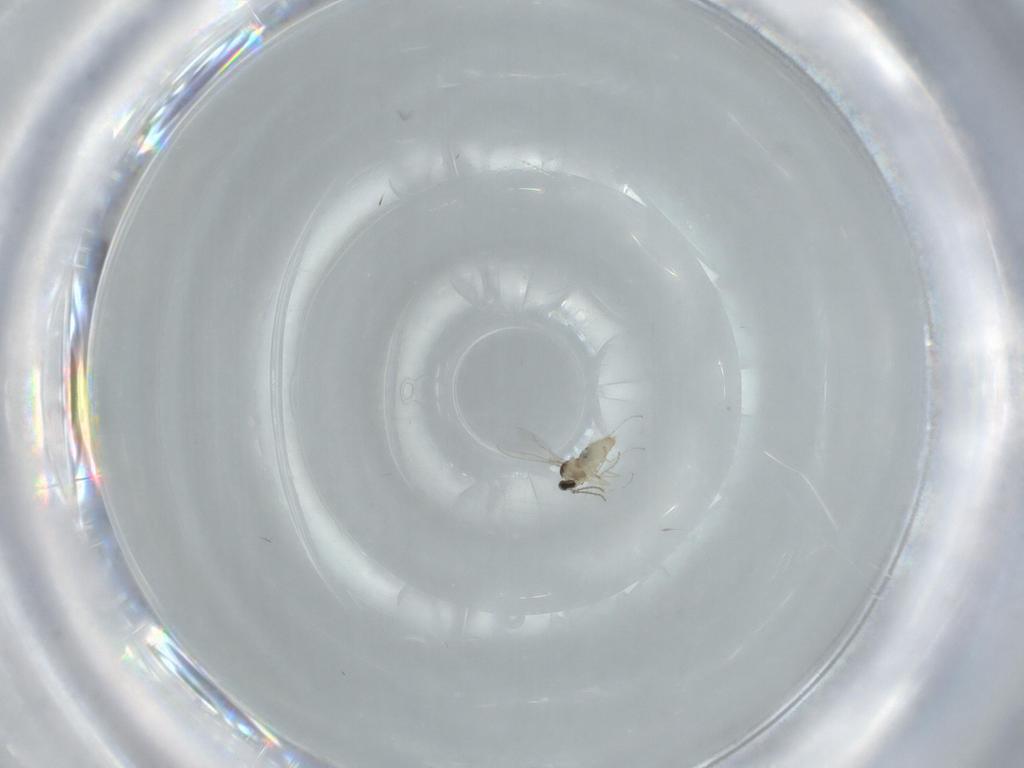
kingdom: Animalia
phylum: Arthropoda
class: Insecta
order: Diptera
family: Cecidomyiidae
